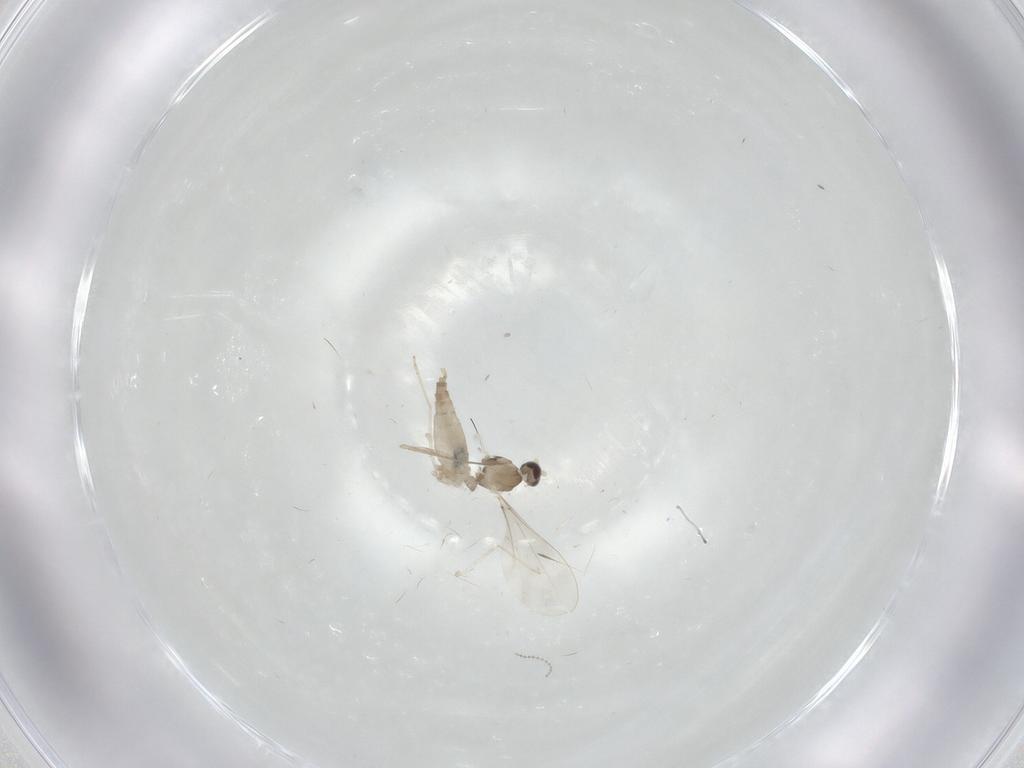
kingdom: Animalia
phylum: Arthropoda
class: Insecta
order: Diptera
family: Cecidomyiidae
